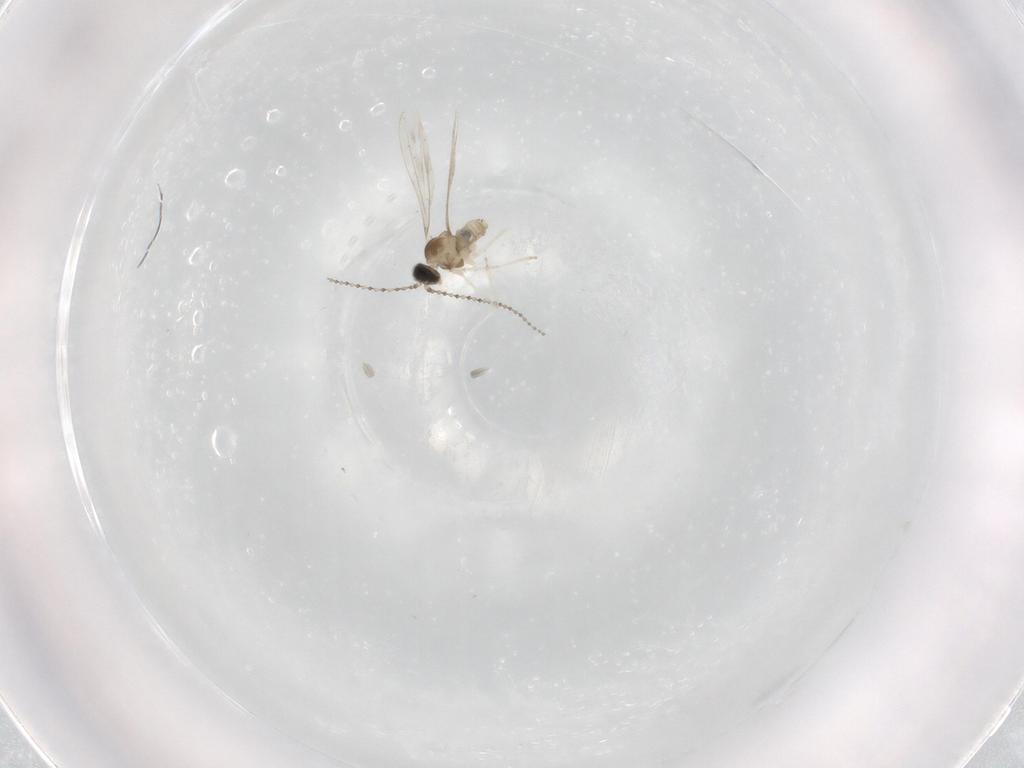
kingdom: Animalia
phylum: Arthropoda
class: Insecta
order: Diptera
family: Cecidomyiidae
